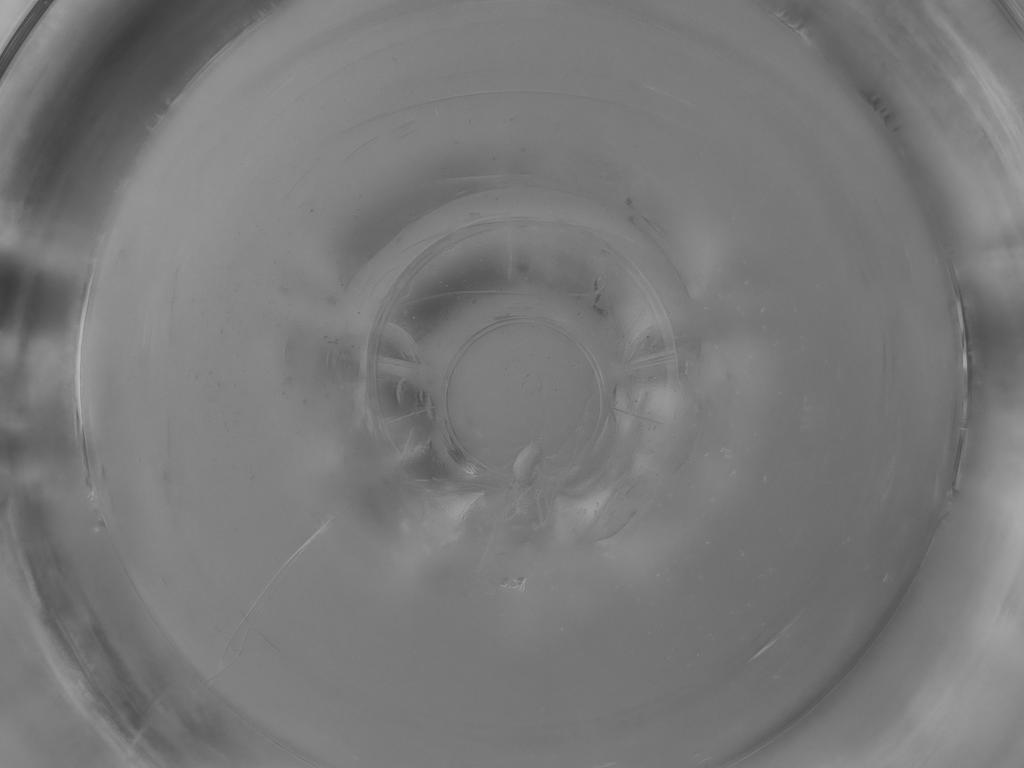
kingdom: Animalia
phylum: Arthropoda
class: Insecta
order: Diptera
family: Cecidomyiidae
